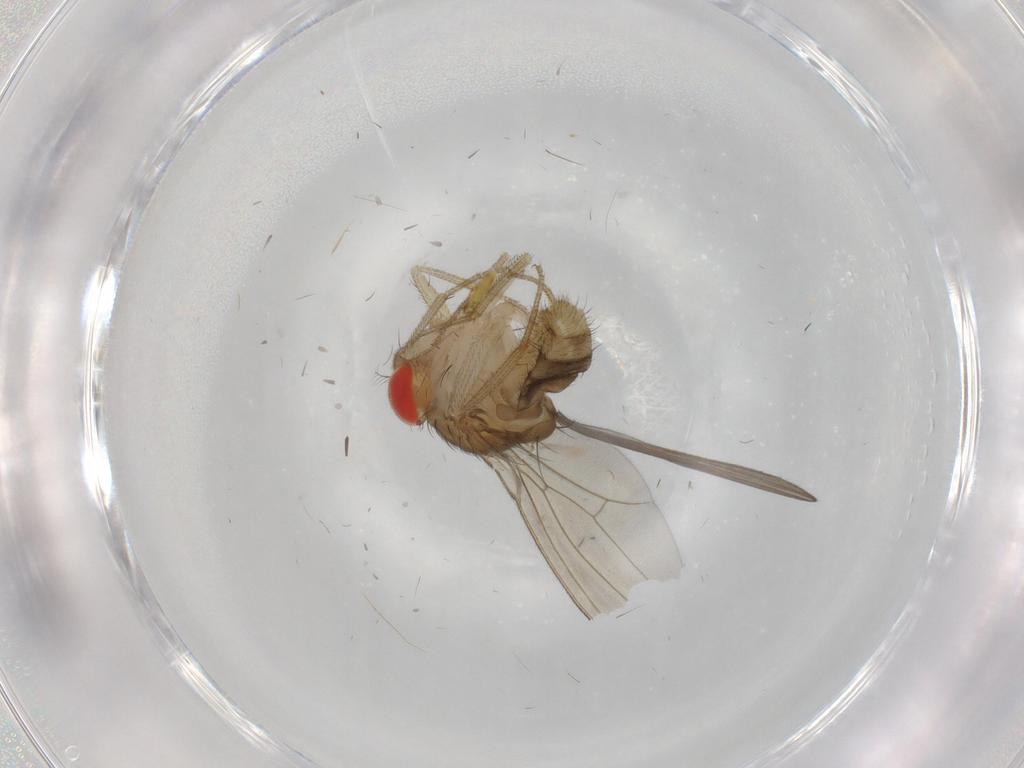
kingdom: Animalia
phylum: Arthropoda
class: Insecta
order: Diptera
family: Drosophilidae
